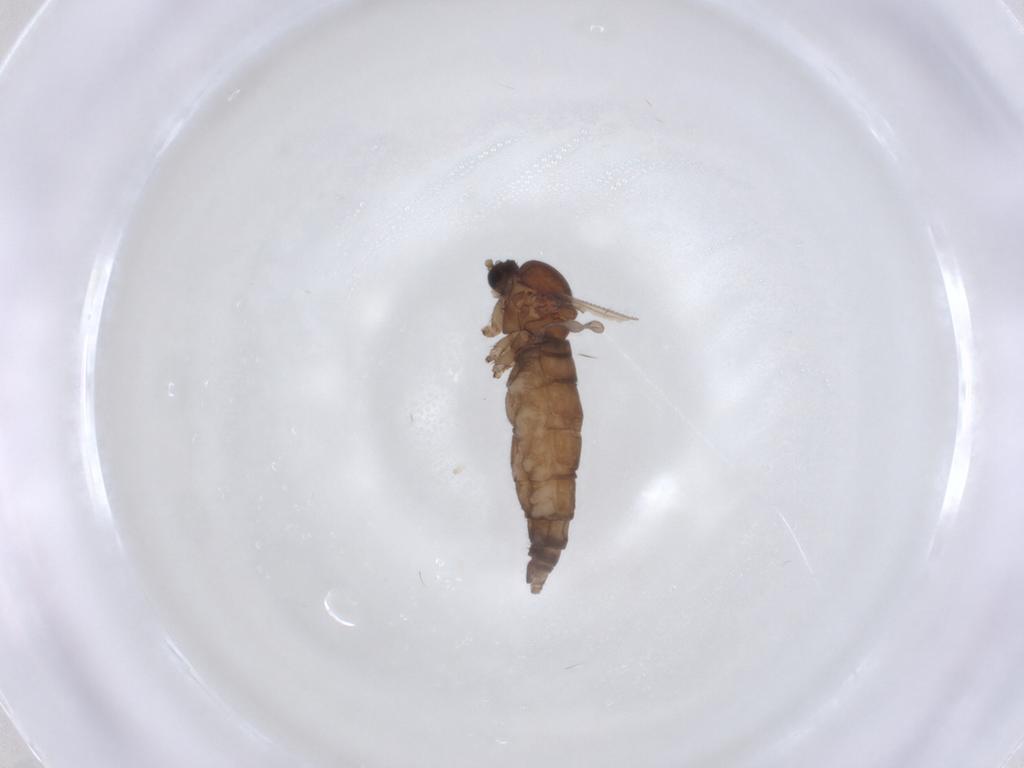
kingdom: Animalia
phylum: Arthropoda
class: Insecta
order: Diptera
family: Sciaridae
